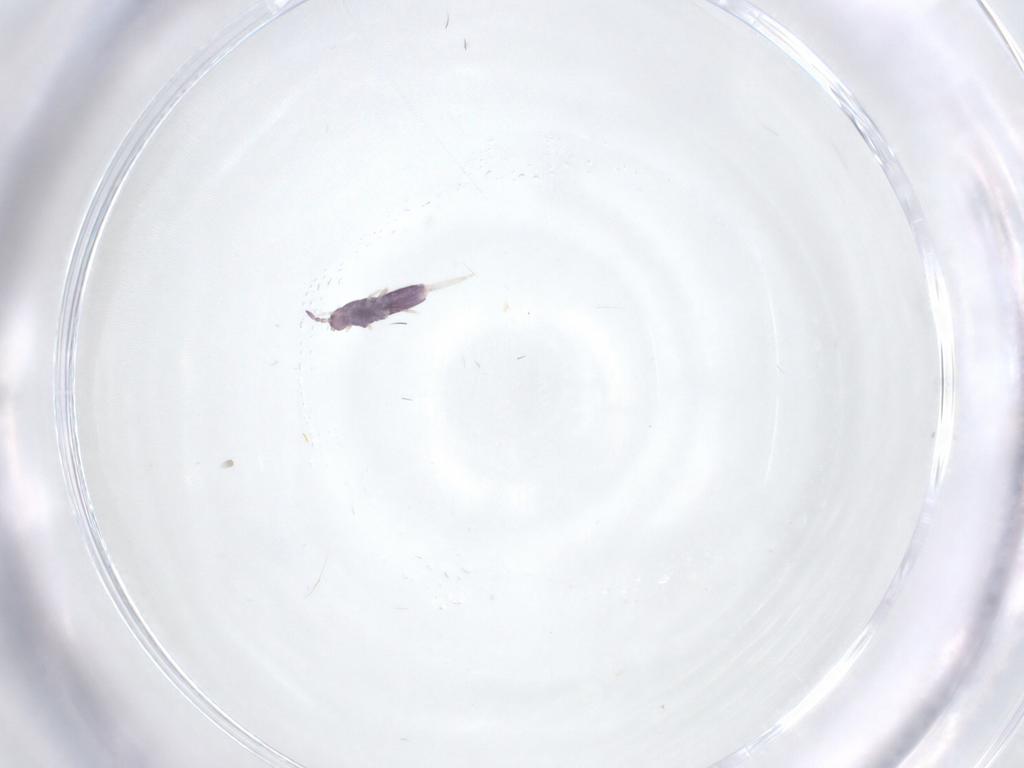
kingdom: Animalia
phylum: Arthropoda
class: Collembola
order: Entomobryomorpha
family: Entomobryidae
